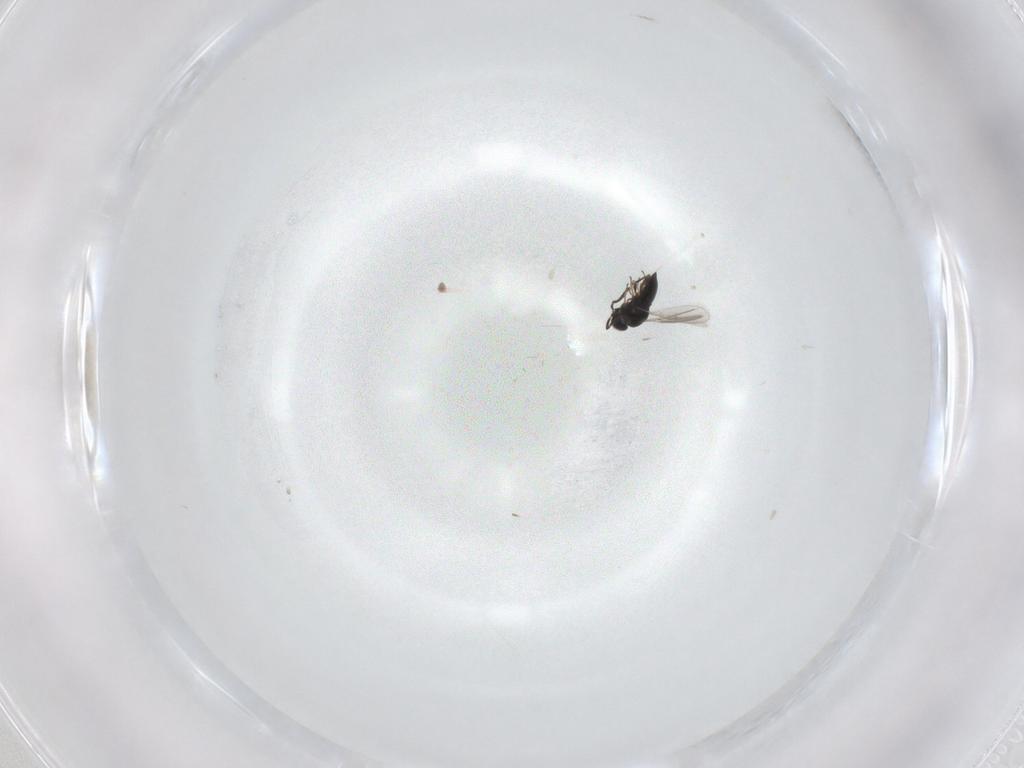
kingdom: Animalia
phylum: Arthropoda
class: Insecta
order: Hymenoptera
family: Scelionidae
